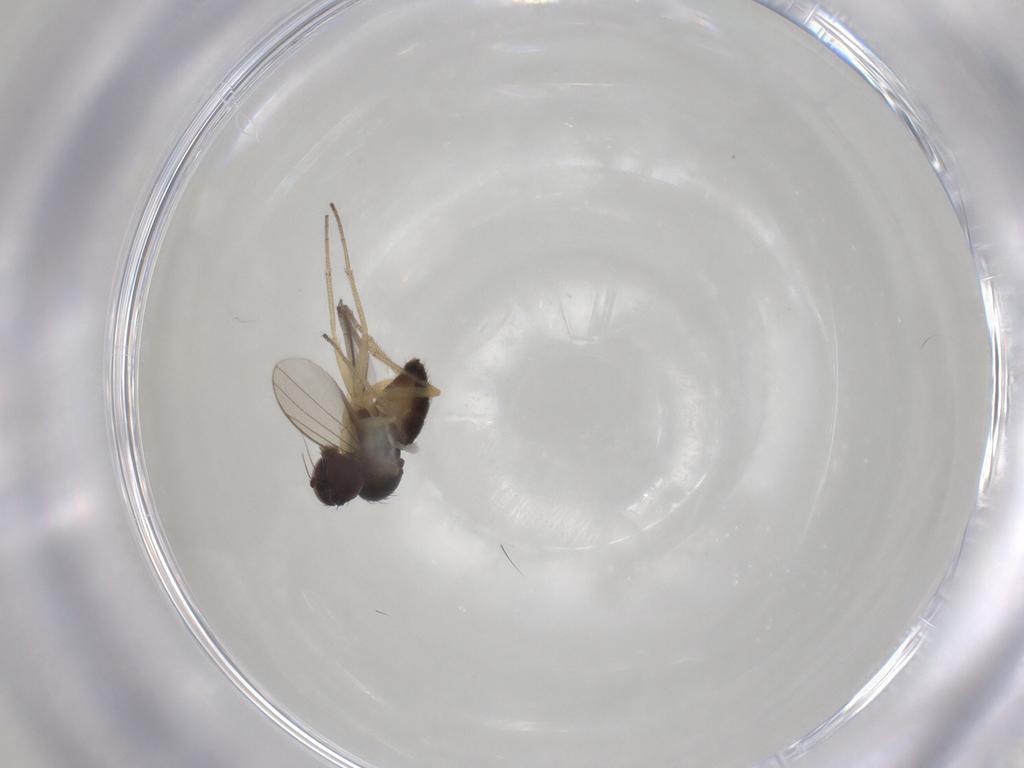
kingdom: Animalia
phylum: Arthropoda
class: Insecta
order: Diptera
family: Dolichopodidae
